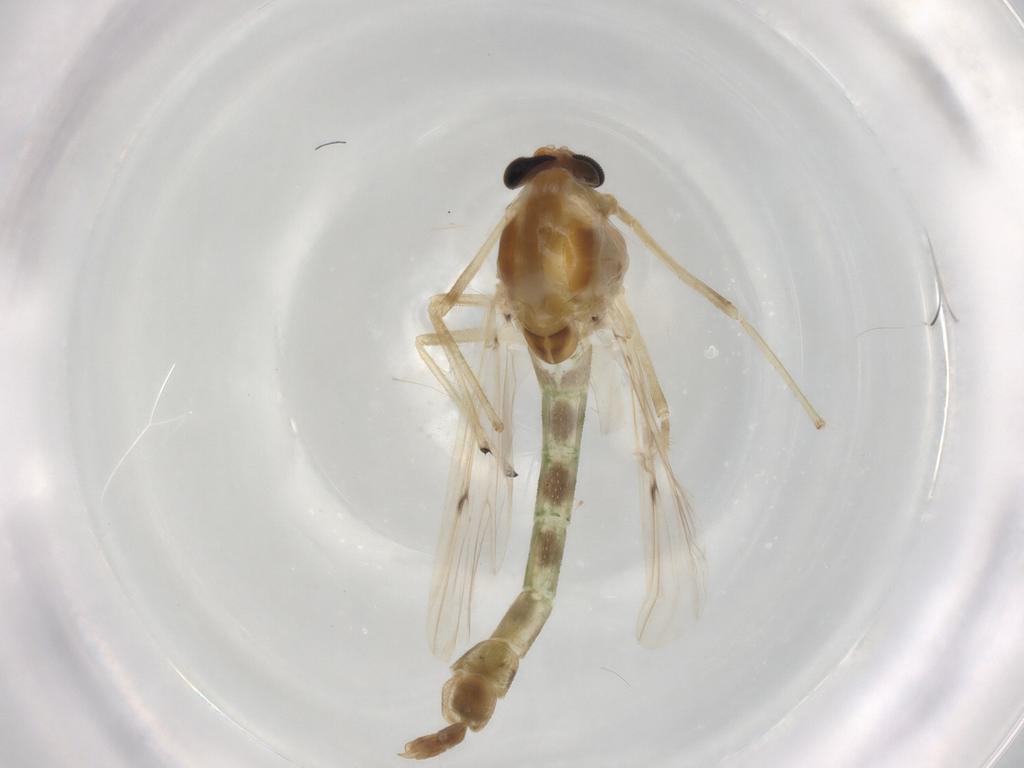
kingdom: Animalia
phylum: Arthropoda
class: Insecta
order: Diptera
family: Chironomidae
